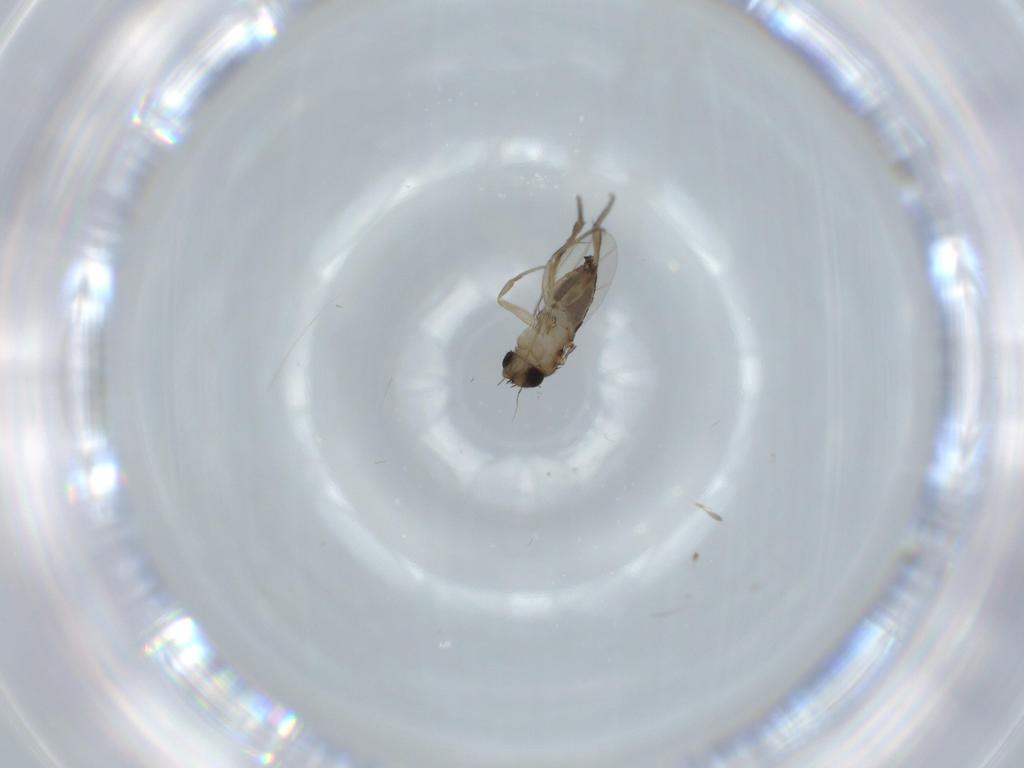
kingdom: Animalia
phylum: Arthropoda
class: Insecta
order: Diptera
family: Phoridae
